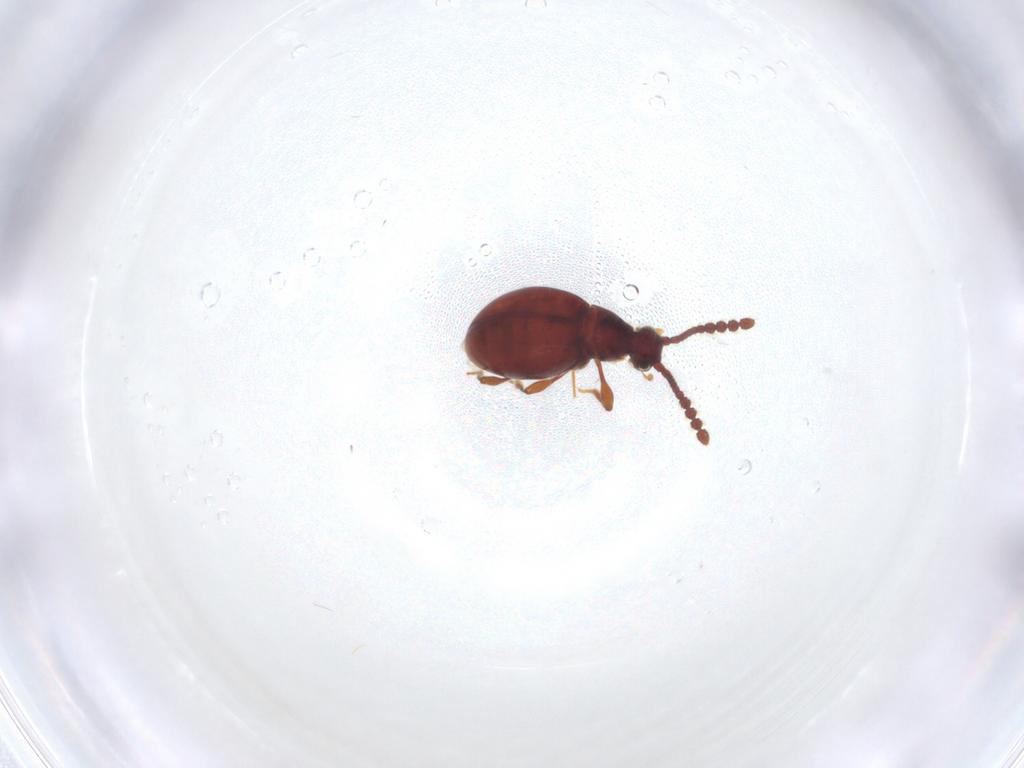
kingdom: Animalia
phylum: Arthropoda
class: Insecta
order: Coleoptera
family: Staphylinidae
